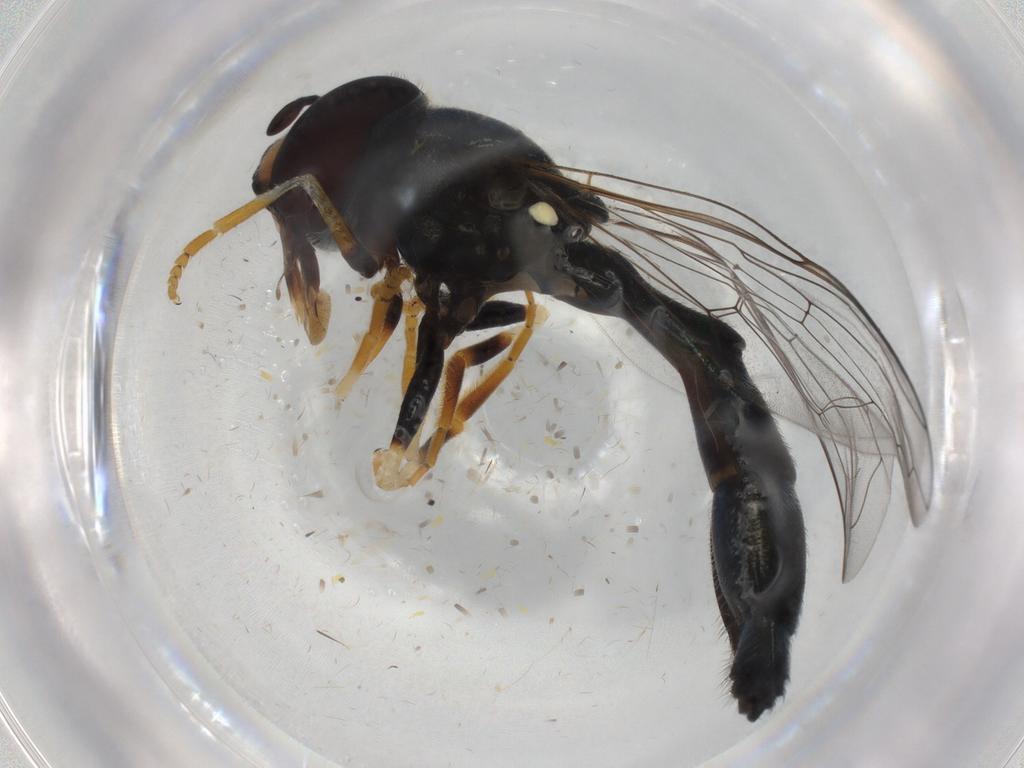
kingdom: Animalia
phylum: Arthropoda
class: Insecta
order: Diptera
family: Ceratopogonidae
